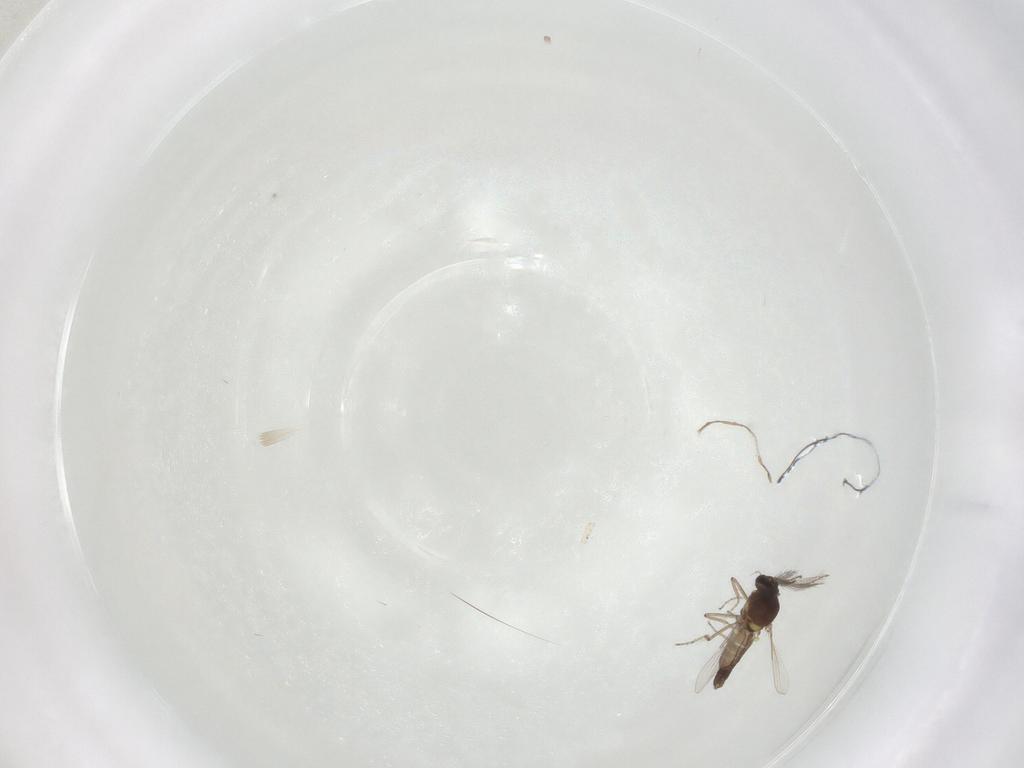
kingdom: Animalia
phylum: Arthropoda
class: Insecta
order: Diptera
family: Ceratopogonidae
